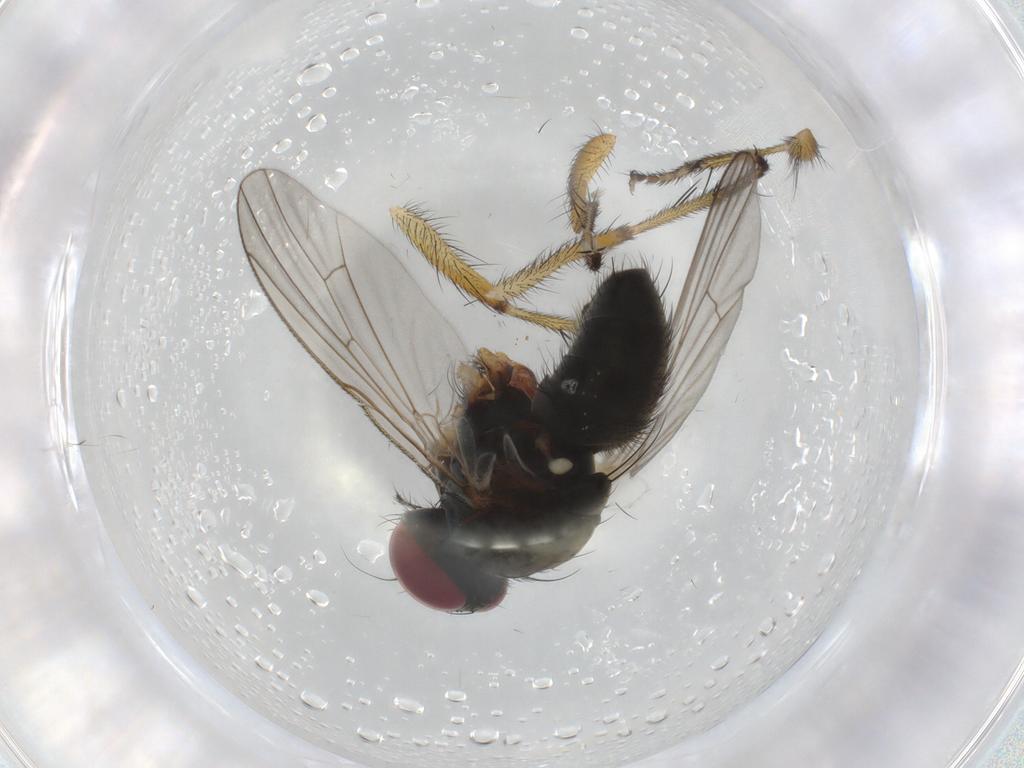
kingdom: Animalia
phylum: Arthropoda
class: Insecta
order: Diptera
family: Muscidae
